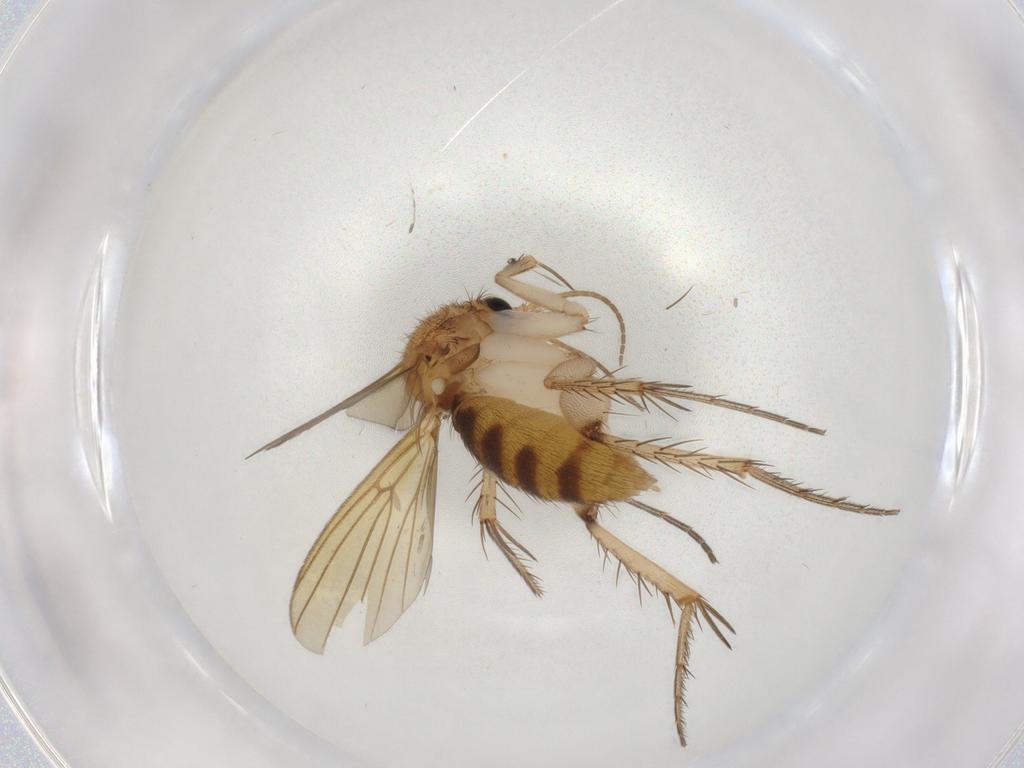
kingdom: Animalia
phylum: Arthropoda
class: Insecta
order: Diptera
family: Mycetophilidae
